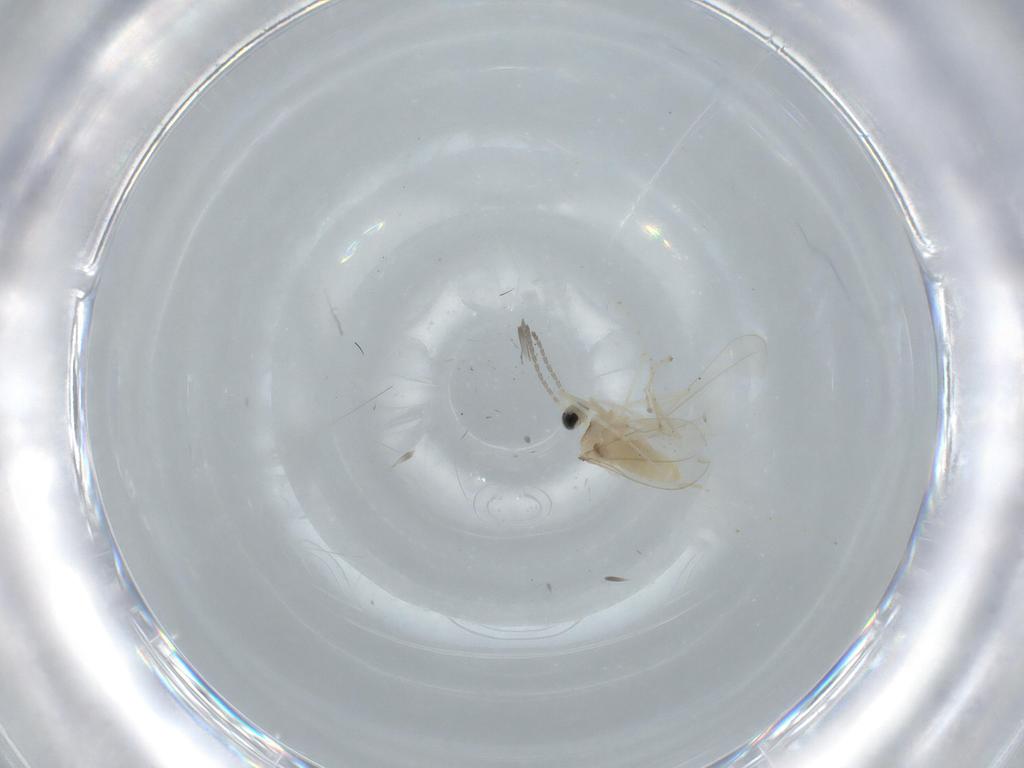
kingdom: Animalia
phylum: Arthropoda
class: Insecta
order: Diptera
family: Cecidomyiidae
